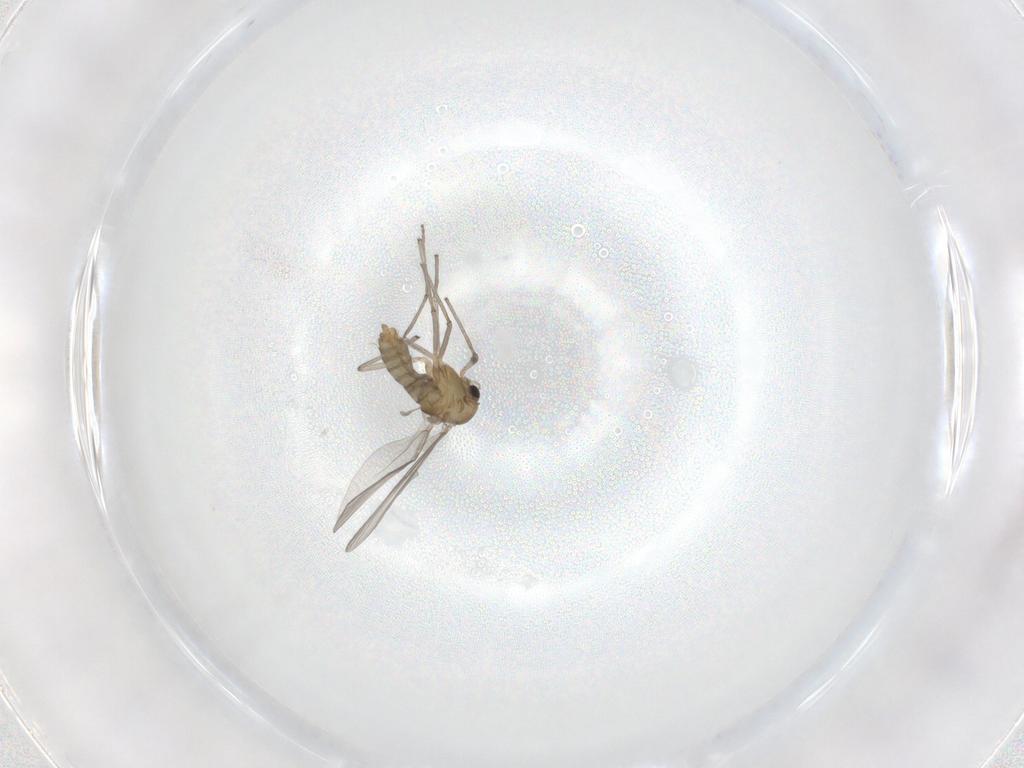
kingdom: Animalia
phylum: Arthropoda
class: Insecta
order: Diptera
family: Chironomidae
